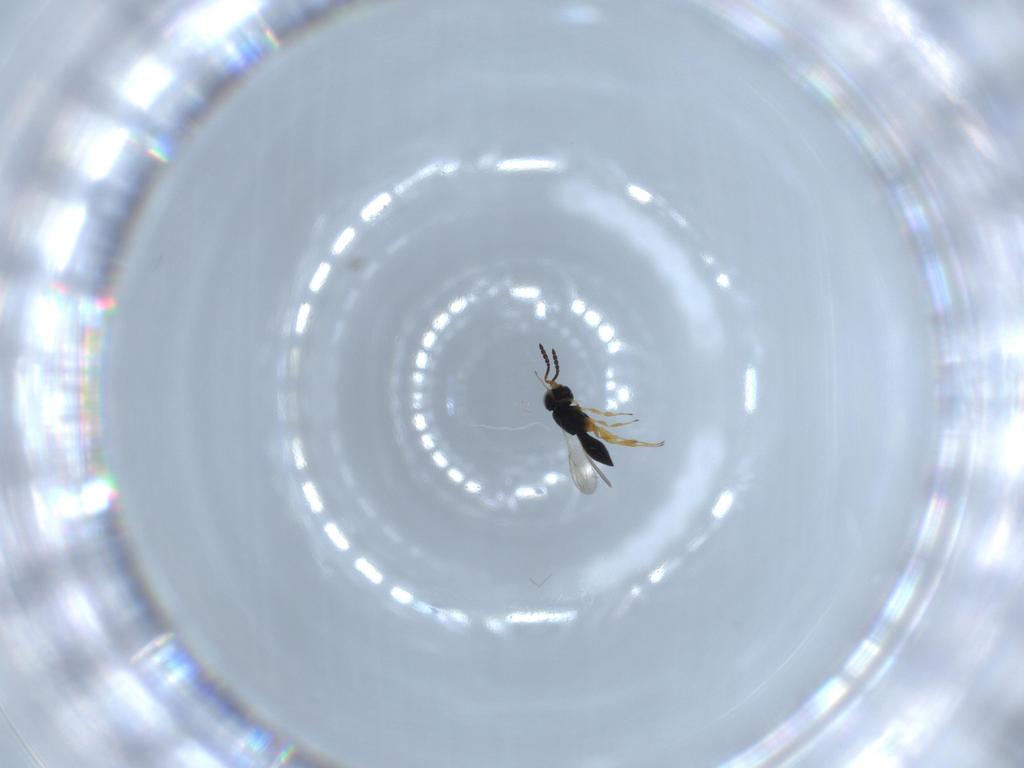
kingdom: Animalia
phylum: Arthropoda
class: Insecta
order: Hymenoptera
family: Scelionidae
